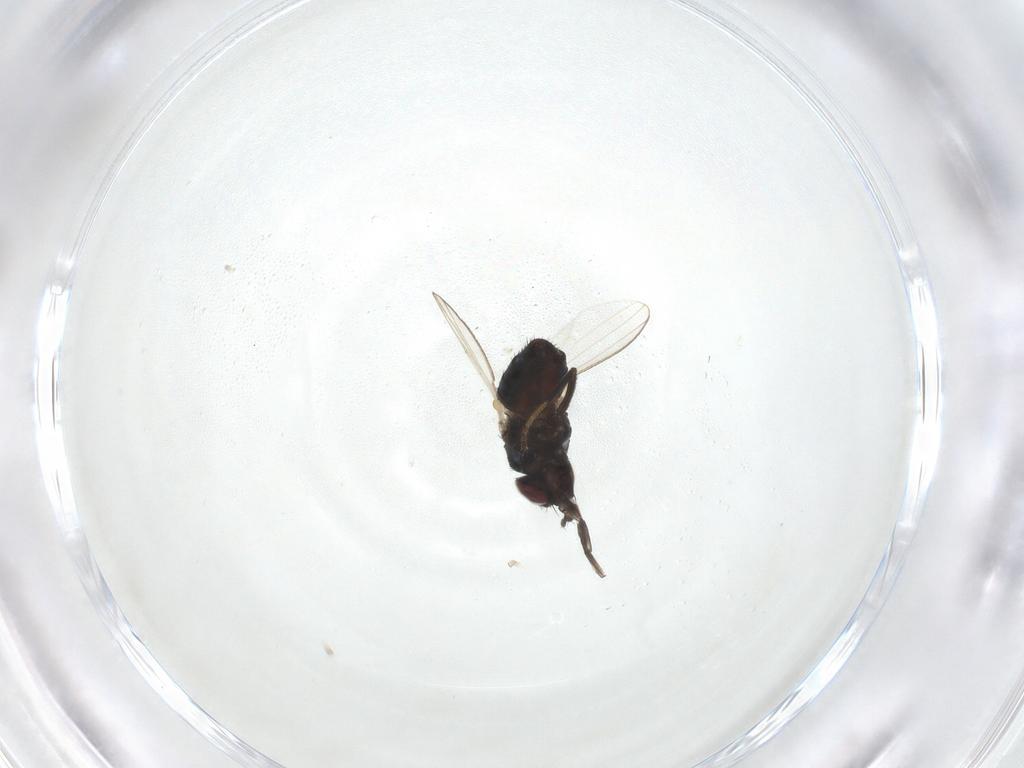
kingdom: Animalia
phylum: Arthropoda
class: Insecta
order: Diptera
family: Milichiidae
